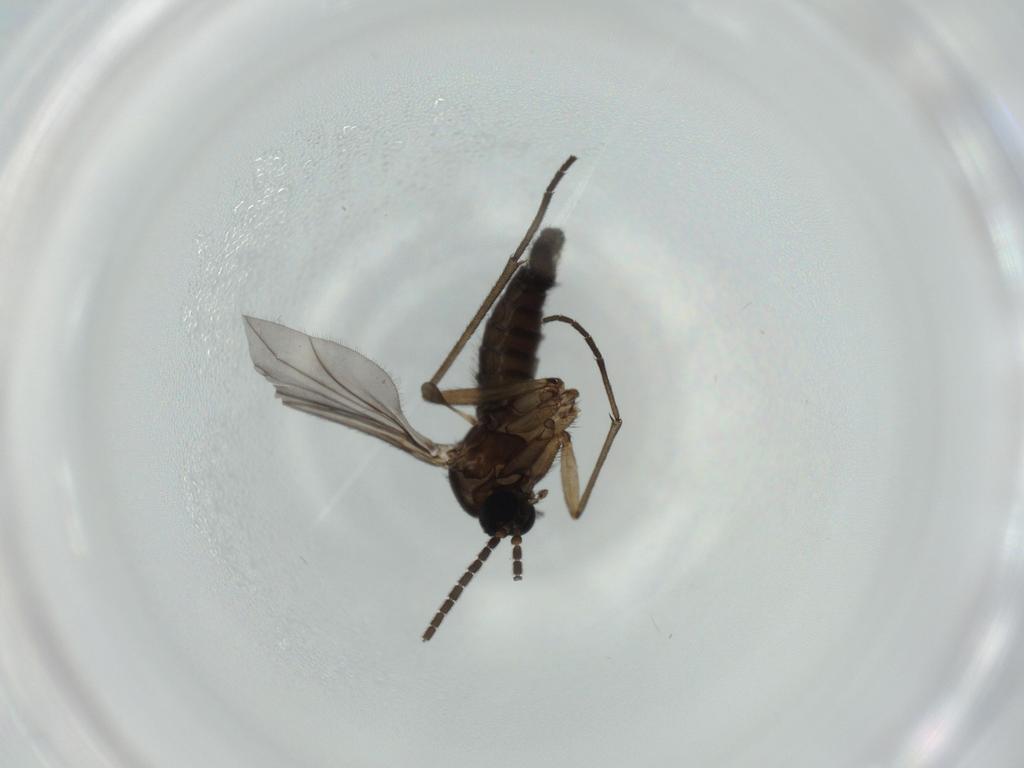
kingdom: Animalia
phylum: Arthropoda
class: Insecta
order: Diptera
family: Sciaridae
